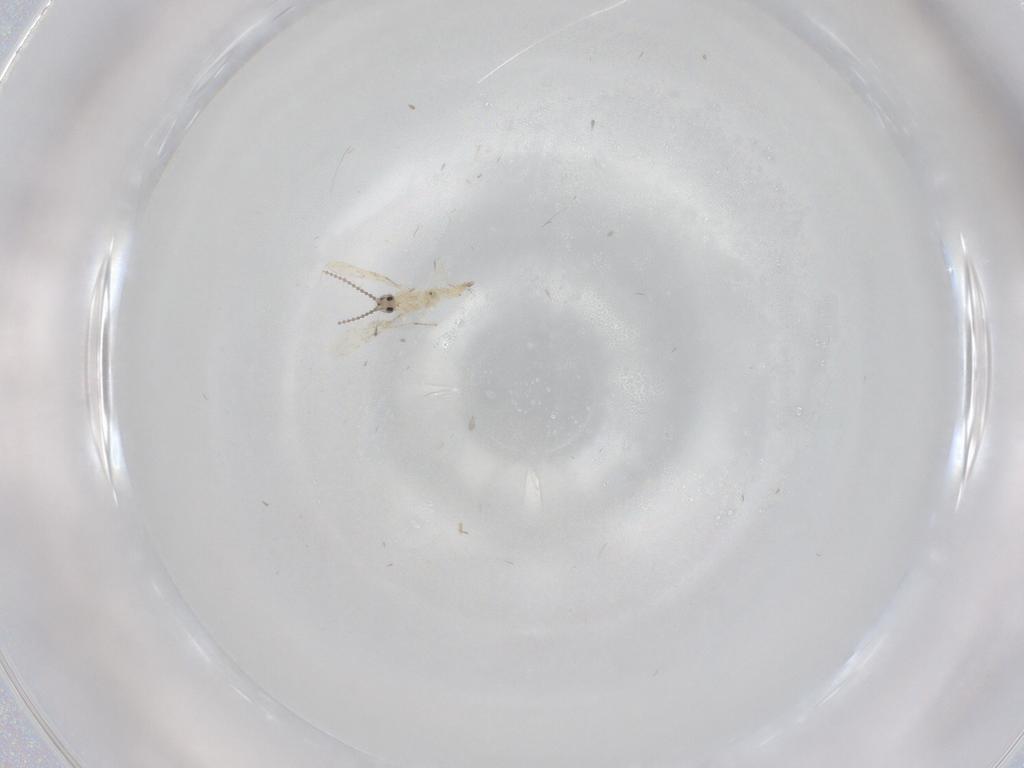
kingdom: Animalia
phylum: Arthropoda
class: Insecta
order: Diptera
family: Cecidomyiidae
